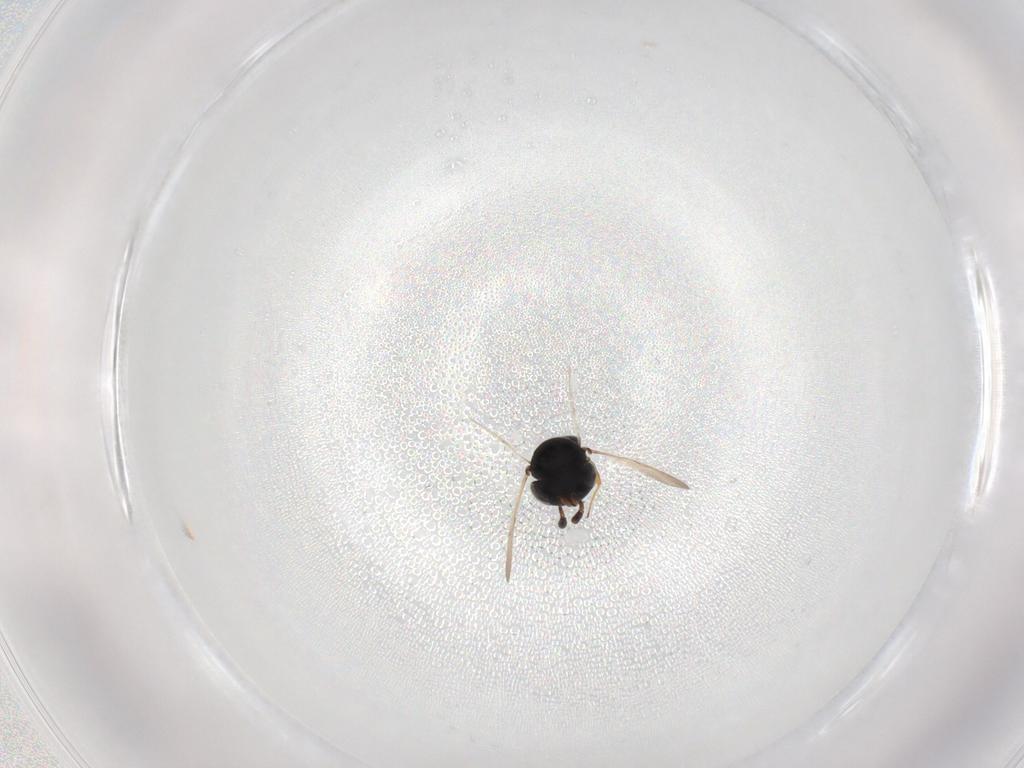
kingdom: Animalia
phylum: Arthropoda
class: Insecta
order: Hymenoptera
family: Scelionidae
